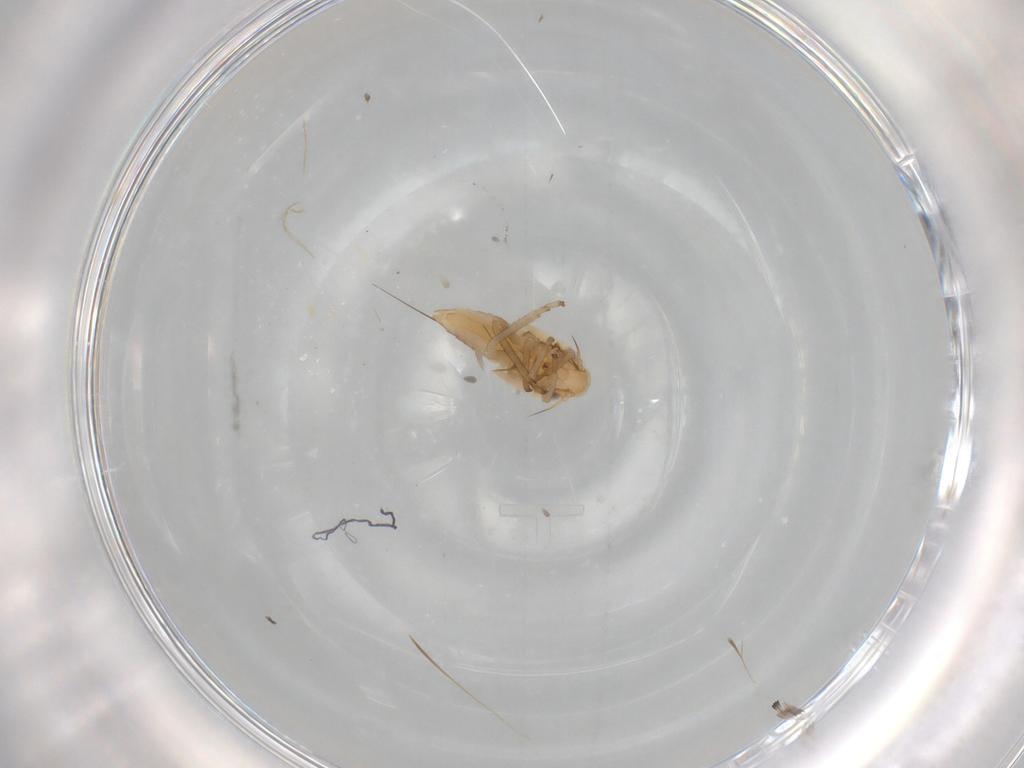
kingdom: Animalia
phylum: Arthropoda
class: Insecta
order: Hemiptera
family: Cicadellidae
